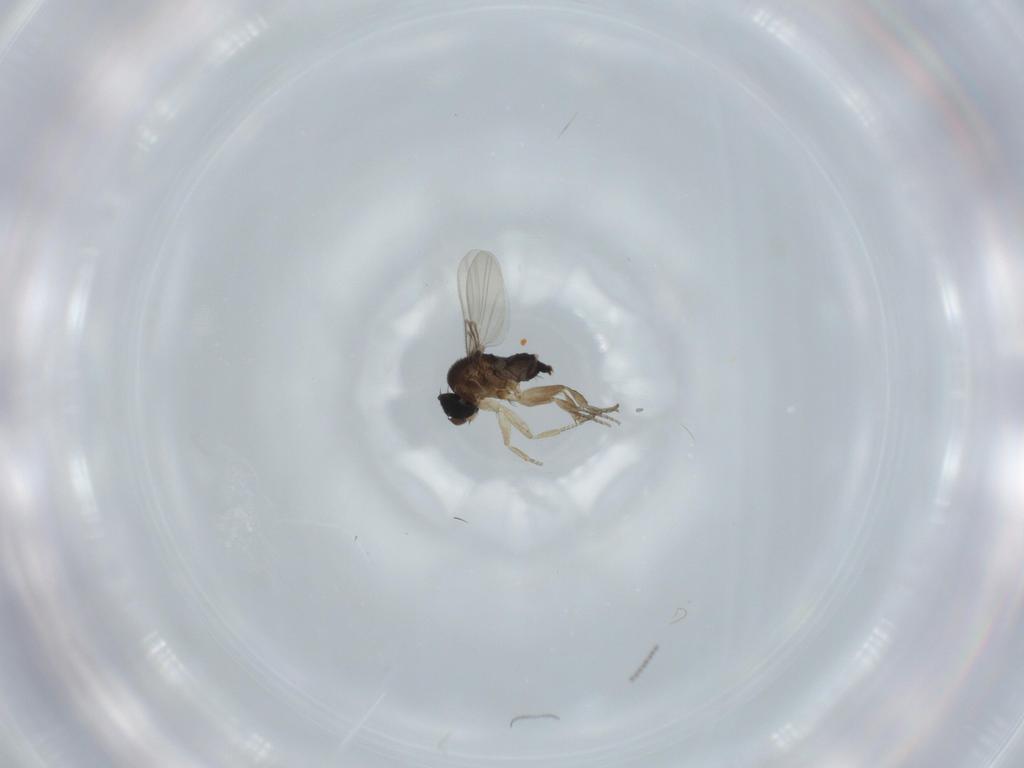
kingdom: Animalia
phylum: Arthropoda
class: Insecta
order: Diptera
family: Phoridae
